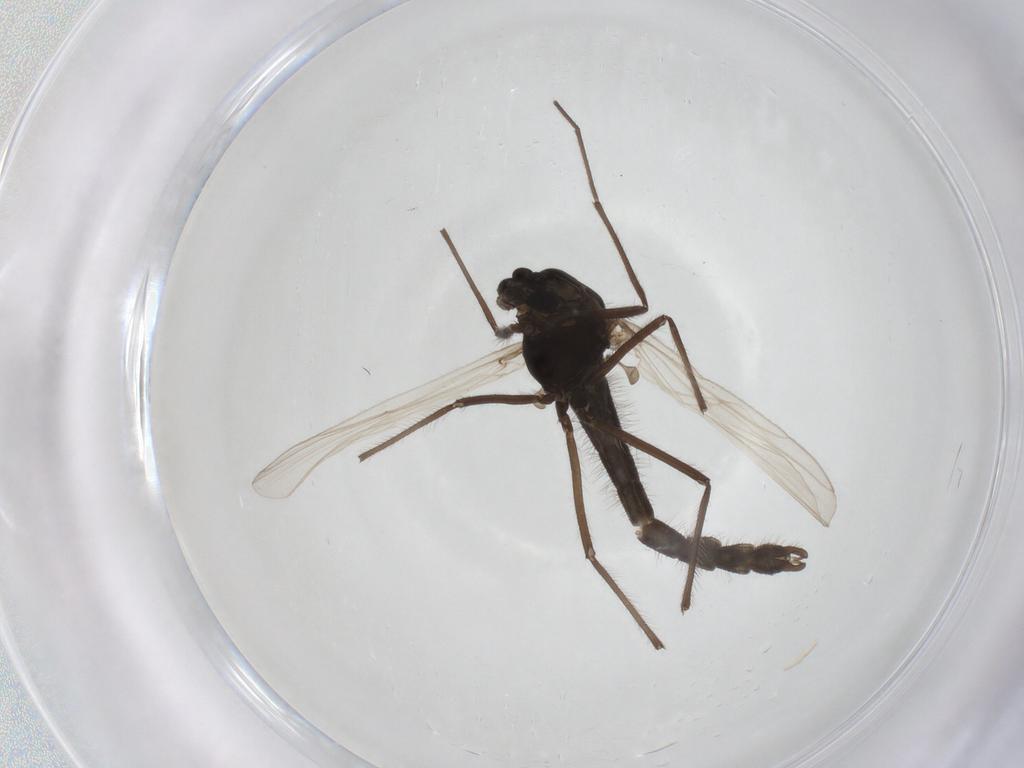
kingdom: Animalia
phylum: Arthropoda
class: Insecta
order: Diptera
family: Chironomidae
